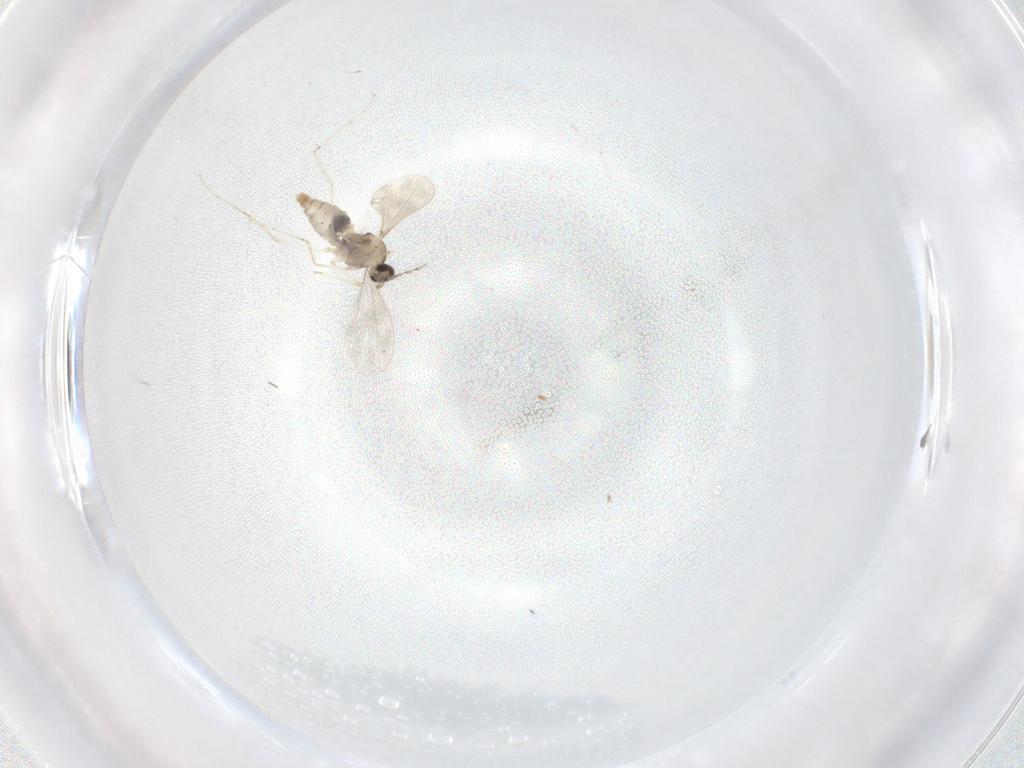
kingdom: Animalia
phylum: Arthropoda
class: Insecta
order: Diptera
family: Cecidomyiidae
